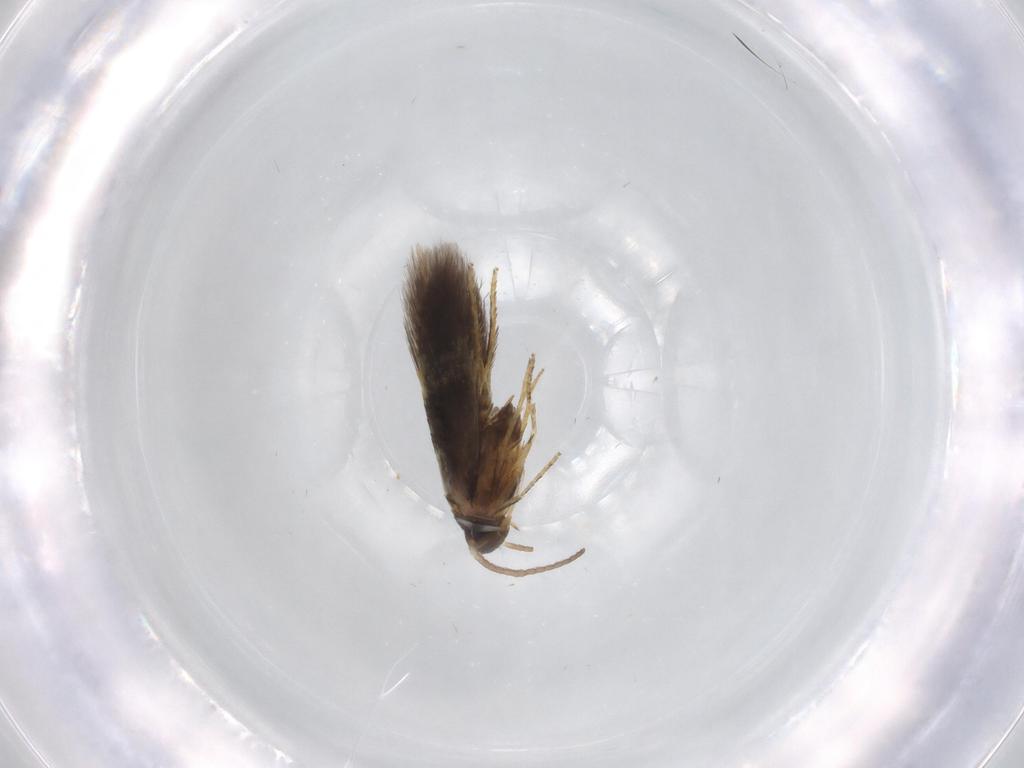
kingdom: Animalia
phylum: Arthropoda
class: Insecta
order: Lepidoptera
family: Heliozelidae
